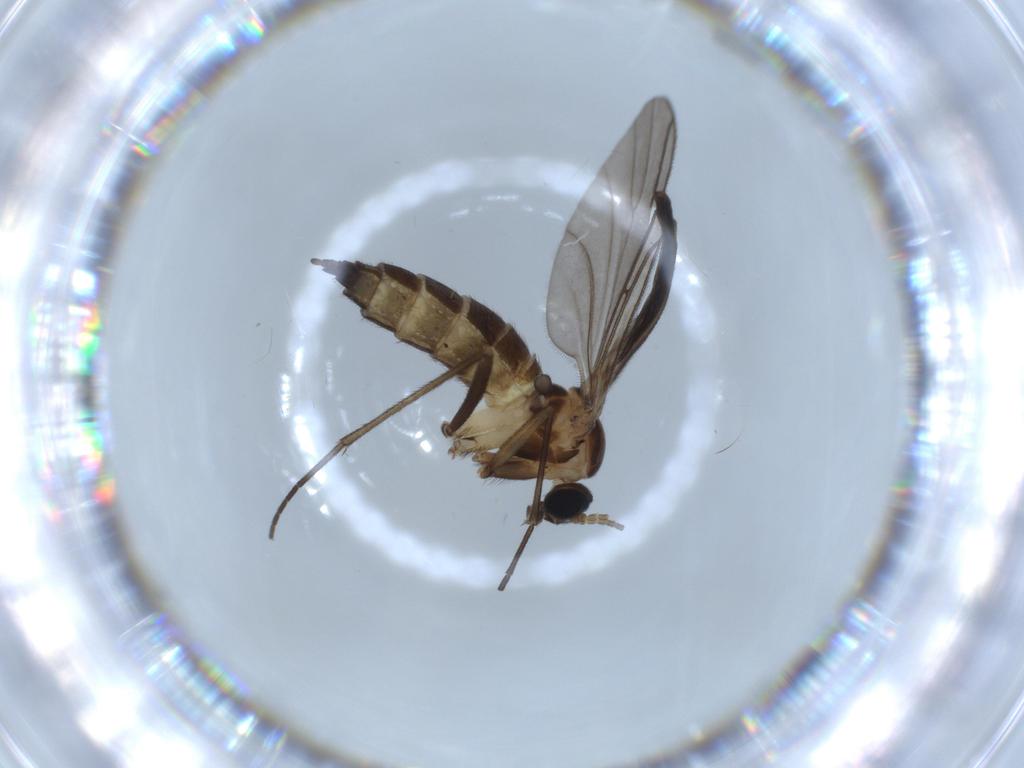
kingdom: Animalia
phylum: Arthropoda
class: Insecta
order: Diptera
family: Sciaridae
